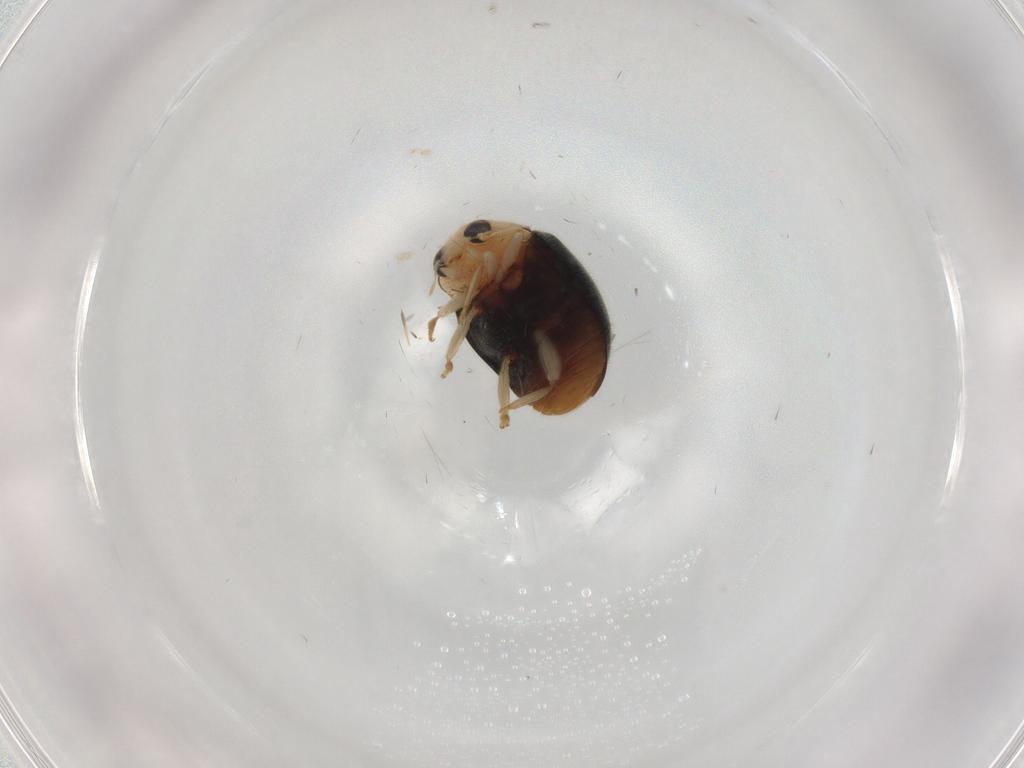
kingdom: Animalia
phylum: Arthropoda
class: Insecta
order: Coleoptera
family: Coccinellidae
